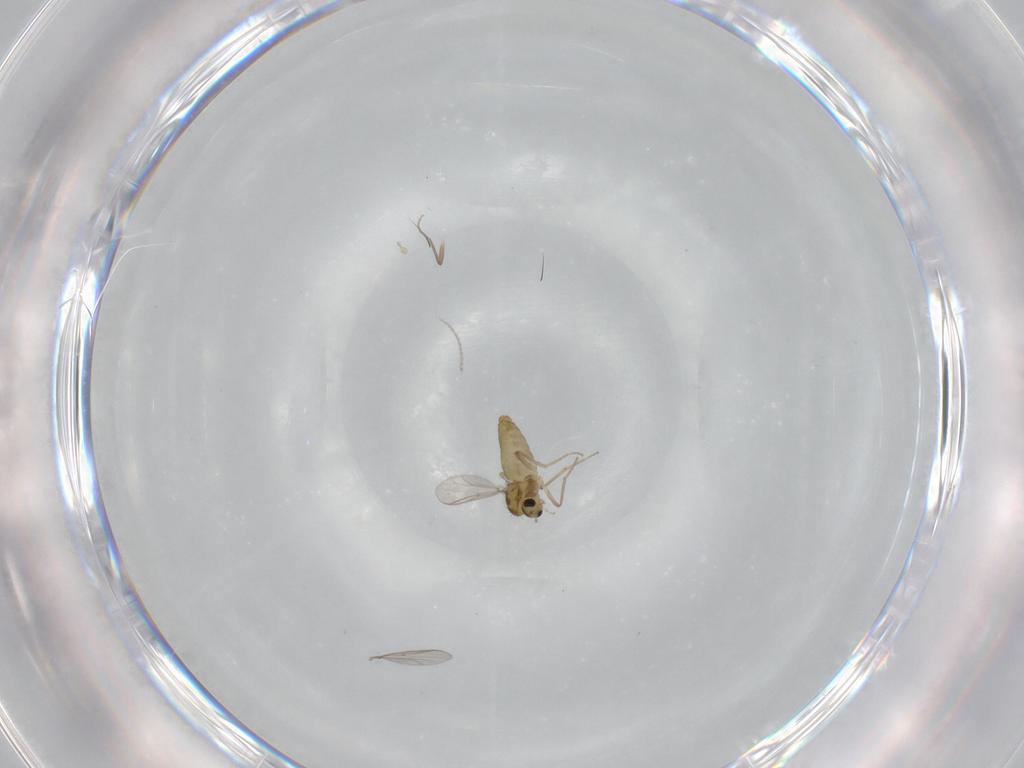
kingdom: Animalia
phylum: Arthropoda
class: Insecta
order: Diptera
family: Chironomidae
